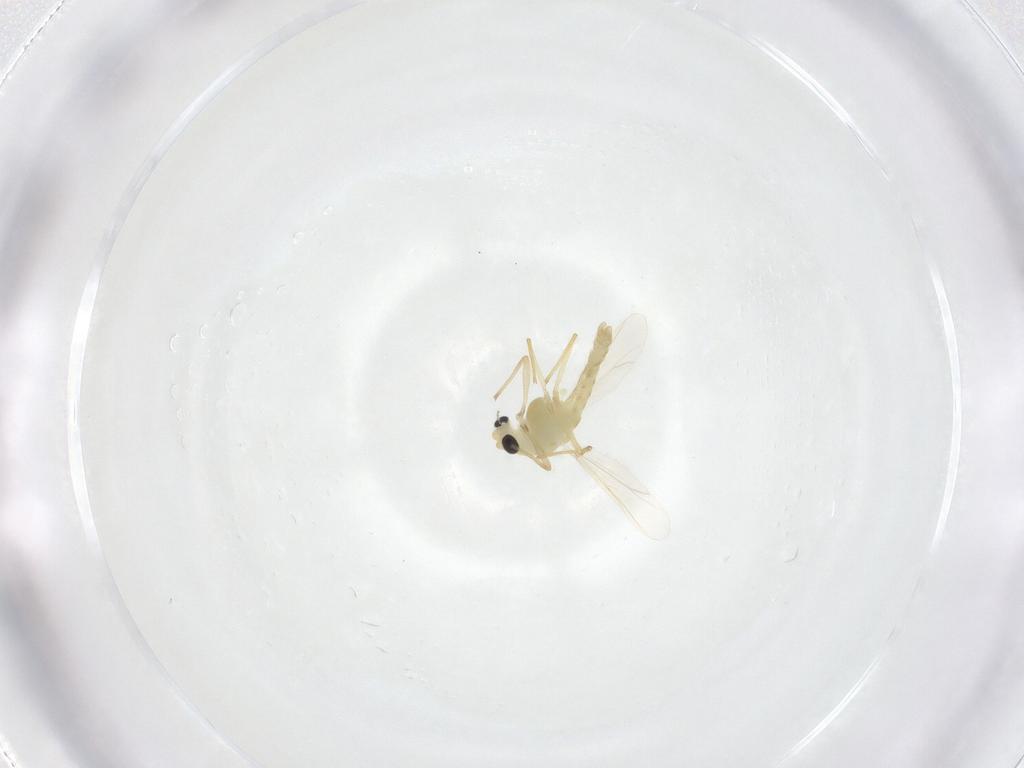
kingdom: Animalia
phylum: Arthropoda
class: Insecta
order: Diptera
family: Chironomidae
